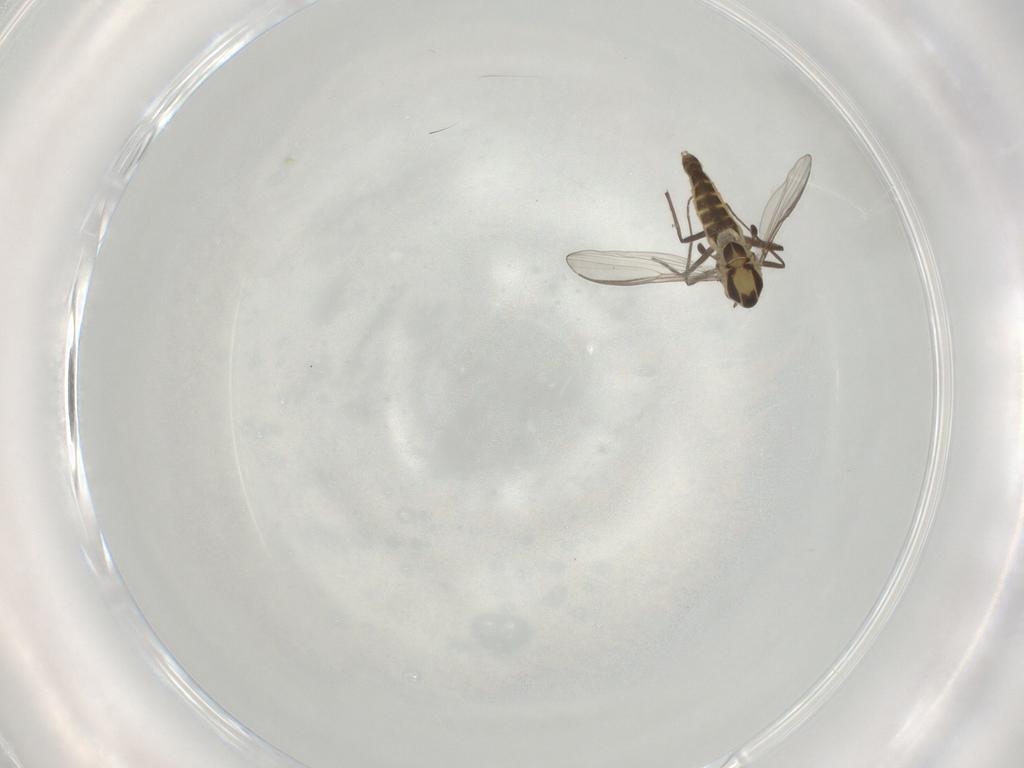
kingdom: Animalia
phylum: Arthropoda
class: Insecta
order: Diptera
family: Chironomidae
